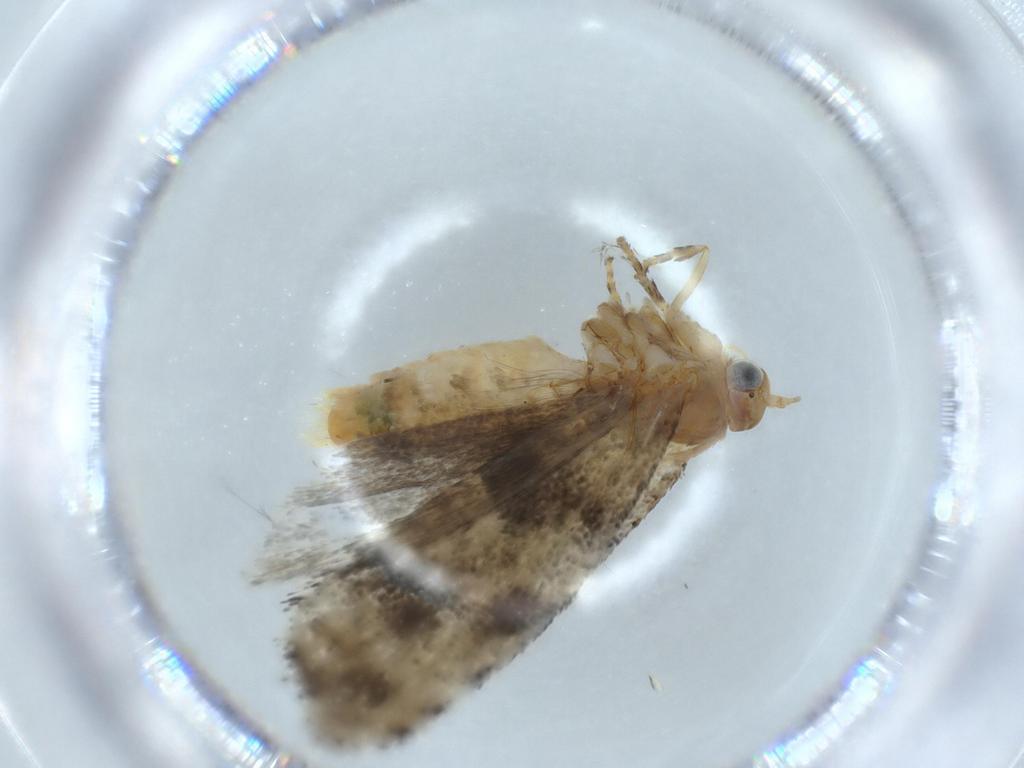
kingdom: Animalia
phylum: Arthropoda
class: Insecta
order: Lepidoptera
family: Tortricidae
